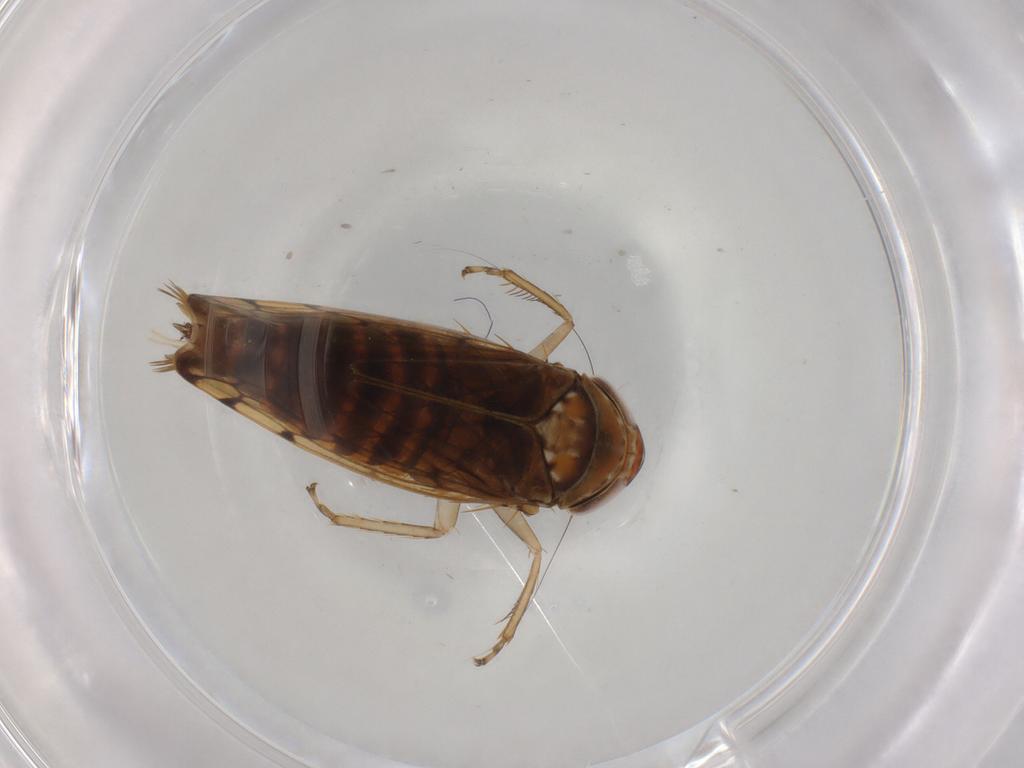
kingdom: Animalia
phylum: Arthropoda
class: Insecta
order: Hemiptera
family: Cicadellidae
